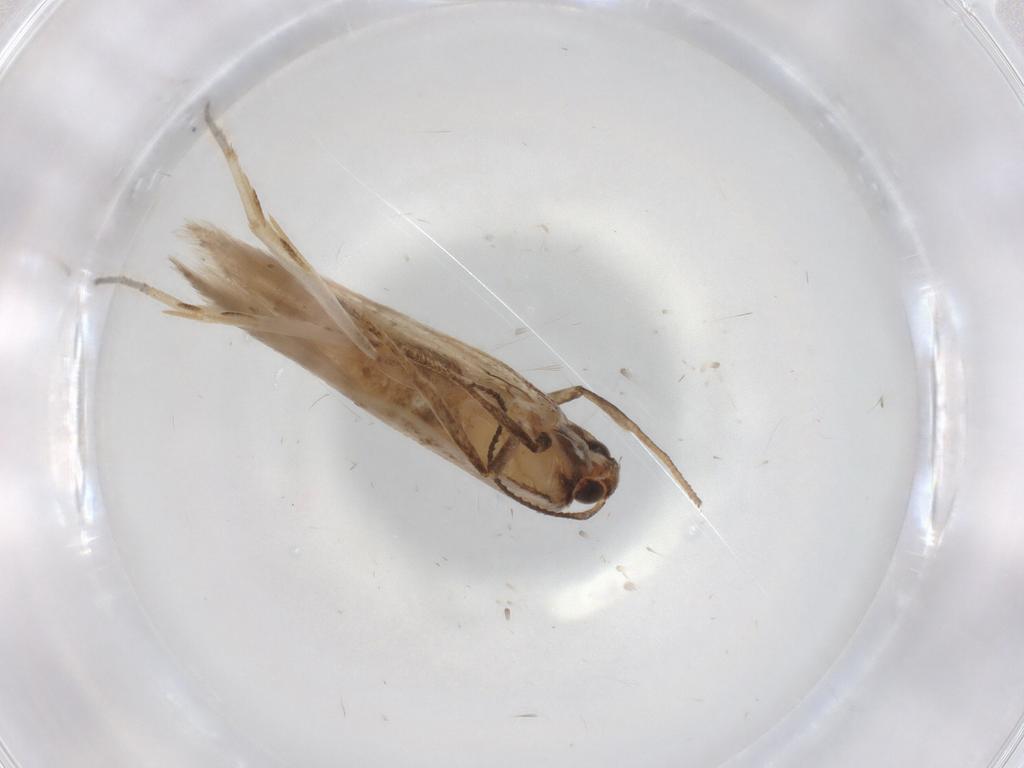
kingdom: Animalia
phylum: Arthropoda
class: Insecta
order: Lepidoptera
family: Gelechiidae
